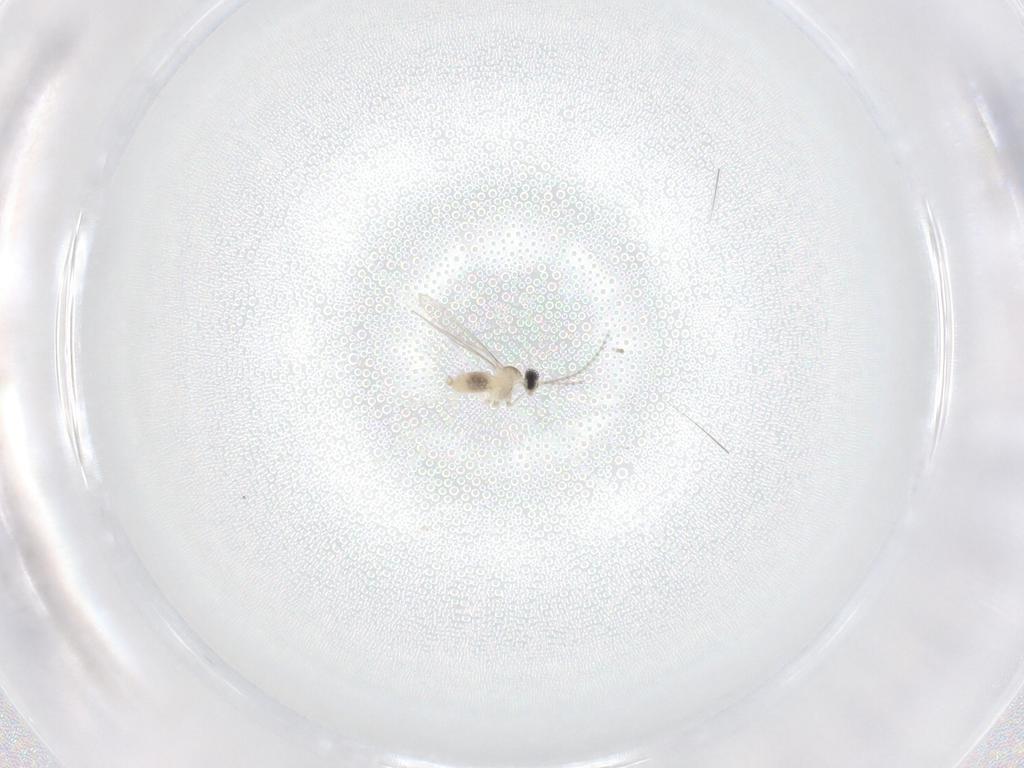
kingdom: Animalia
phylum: Arthropoda
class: Insecta
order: Diptera
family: Cecidomyiidae
